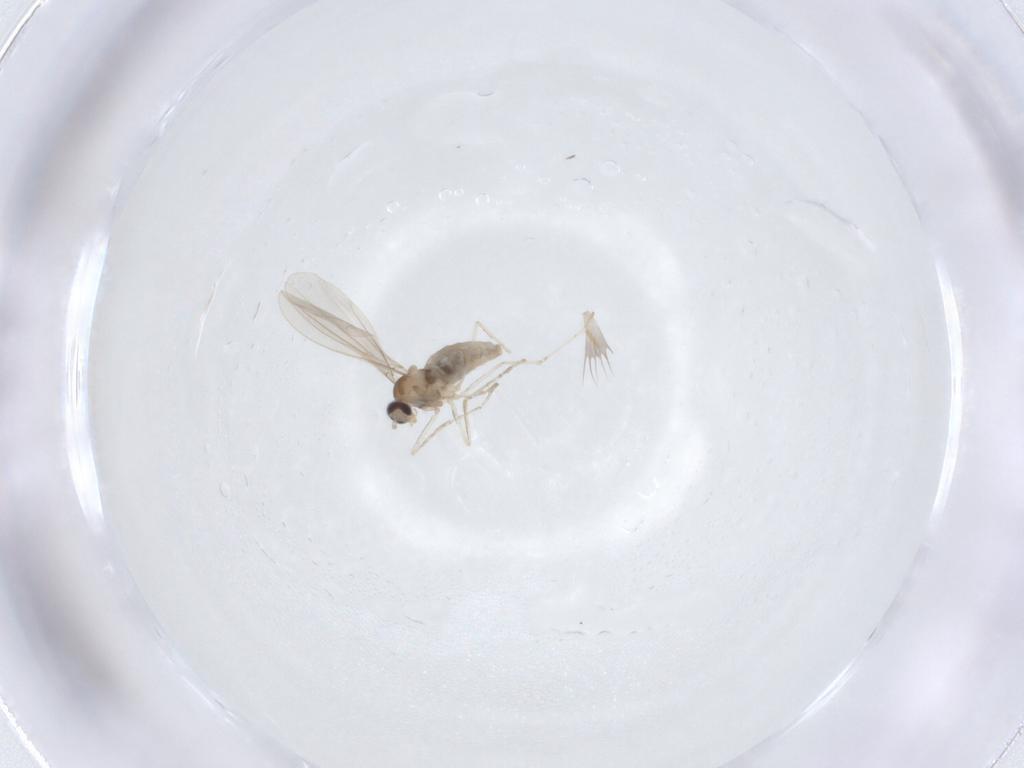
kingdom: Animalia
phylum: Arthropoda
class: Insecta
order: Diptera
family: Cecidomyiidae
